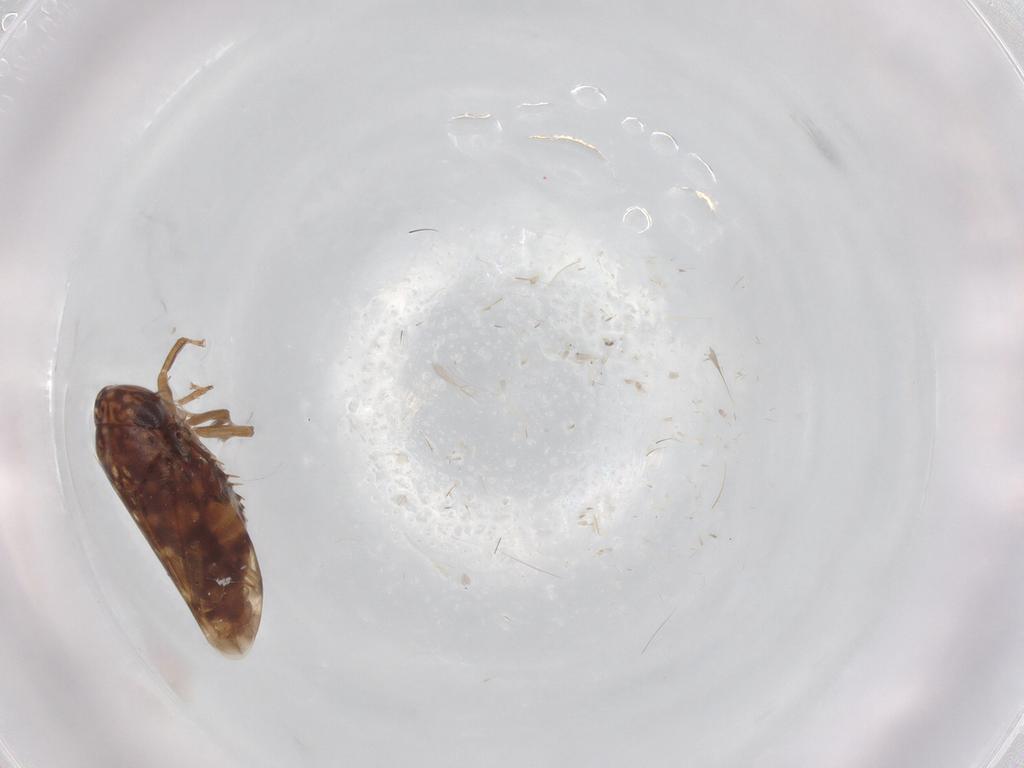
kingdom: Animalia
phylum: Arthropoda
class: Insecta
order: Hemiptera
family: Cicadellidae
